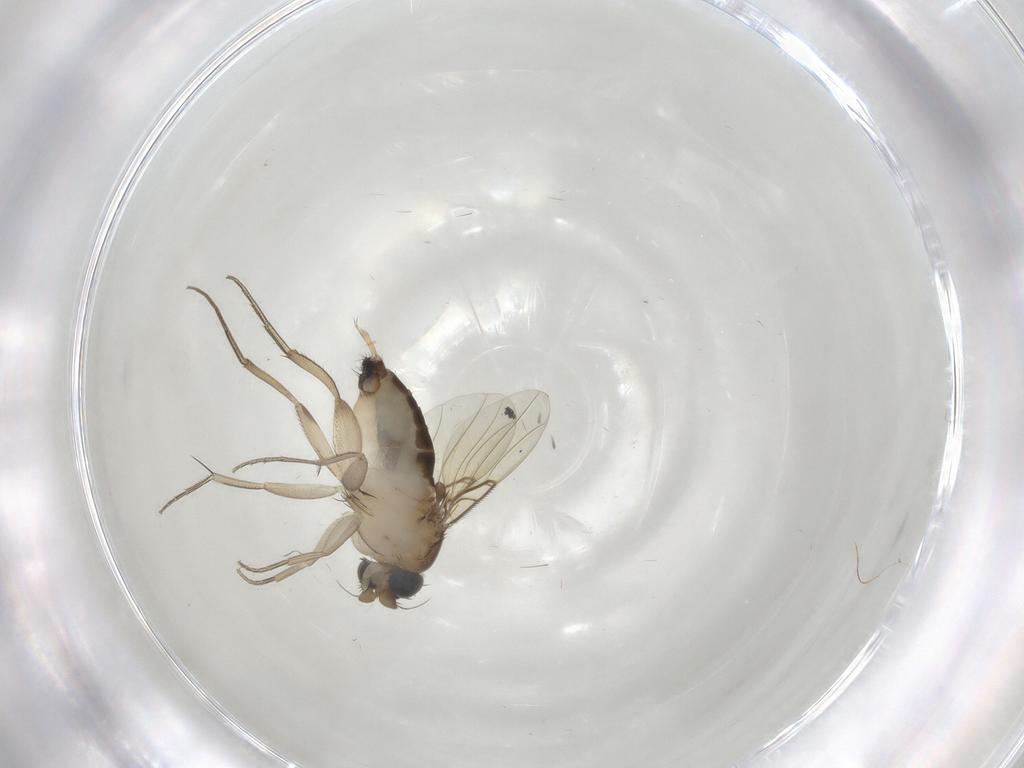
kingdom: Animalia
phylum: Arthropoda
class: Insecta
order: Diptera
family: Phoridae
